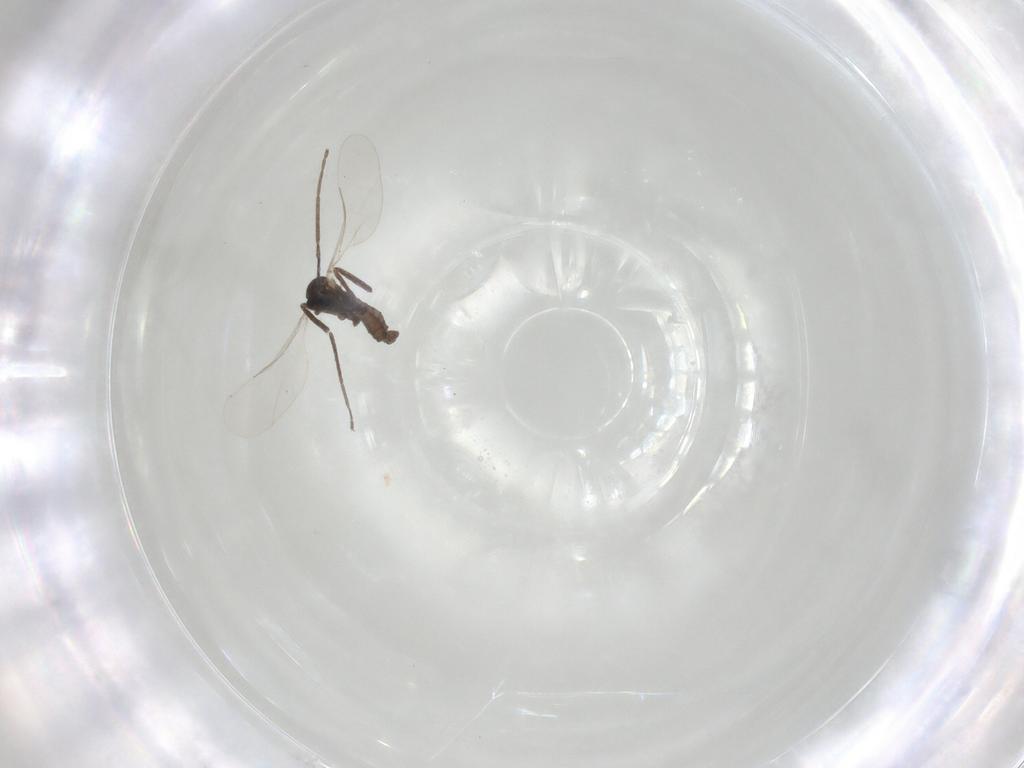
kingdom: Animalia
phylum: Arthropoda
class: Insecta
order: Diptera
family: Cecidomyiidae
